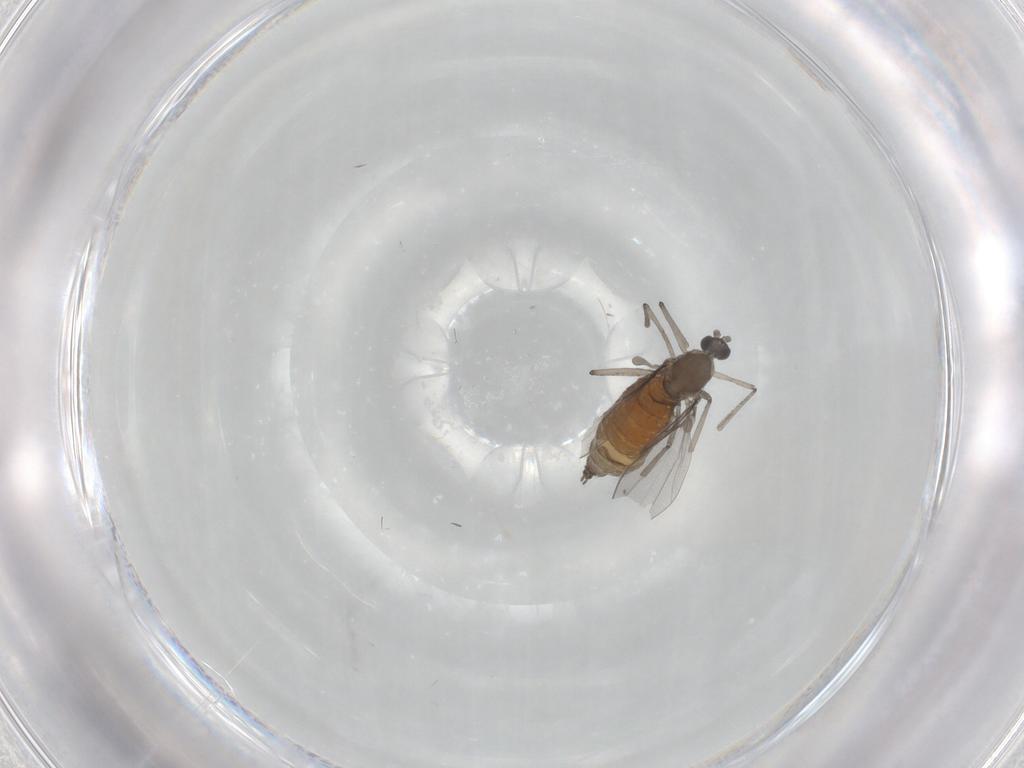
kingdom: Animalia
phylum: Arthropoda
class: Insecta
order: Diptera
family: Cecidomyiidae
